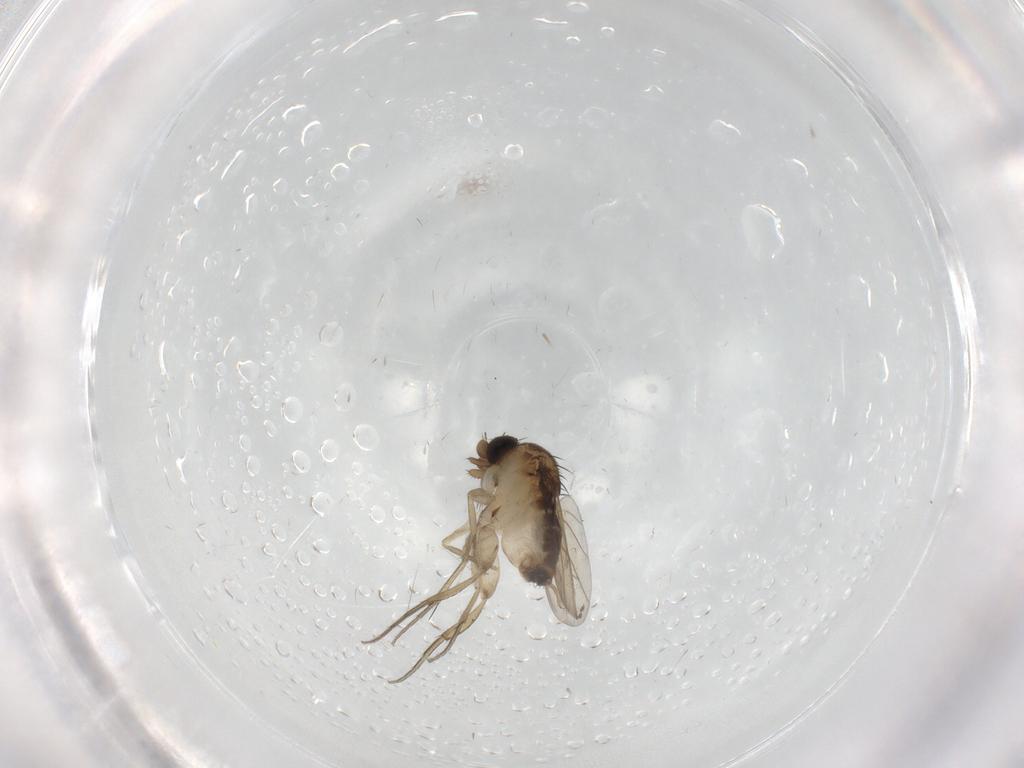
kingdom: Animalia
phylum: Arthropoda
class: Insecta
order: Diptera
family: Chironomidae
